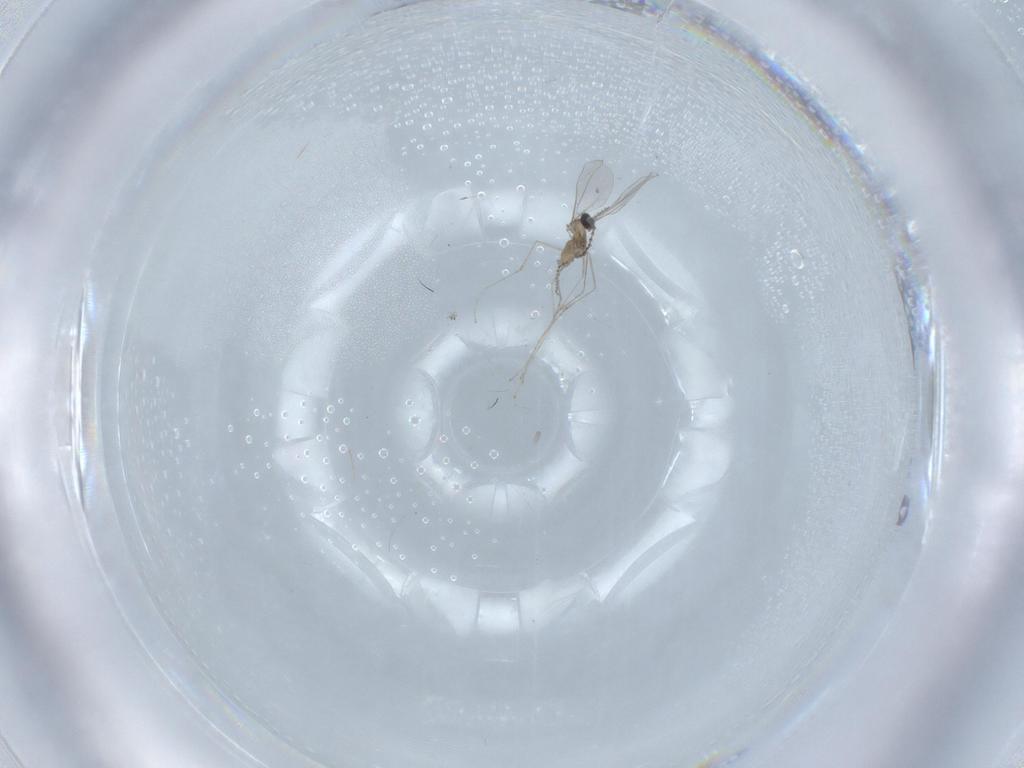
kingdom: Animalia
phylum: Arthropoda
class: Insecta
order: Diptera
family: Cecidomyiidae
